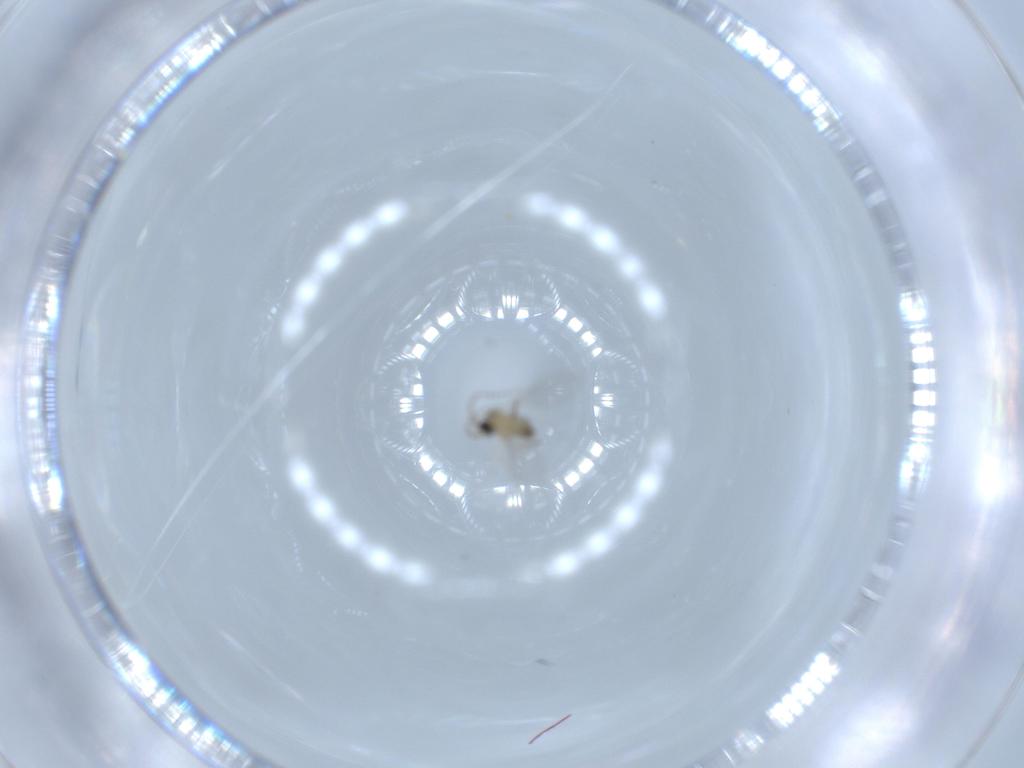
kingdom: Animalia
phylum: Arthropoda
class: Insecta
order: Diptera
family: Cecidomyiidae
